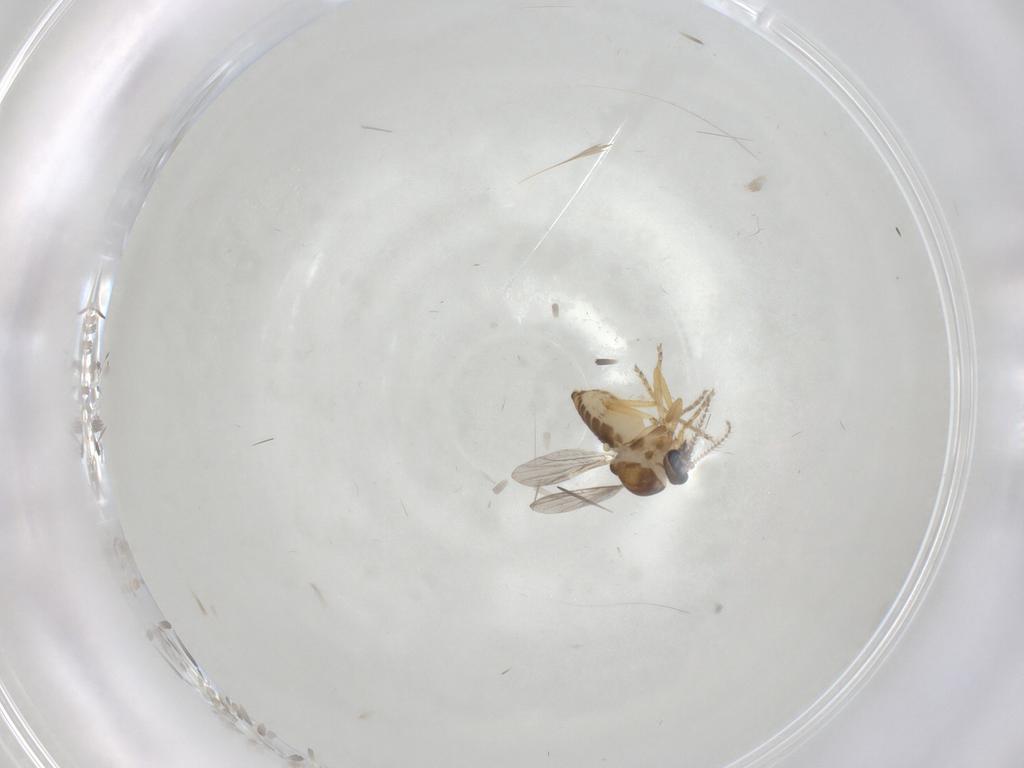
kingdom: Animalia
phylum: Arthropoda
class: Insecta
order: Diptera
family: Ceratopogonidae
